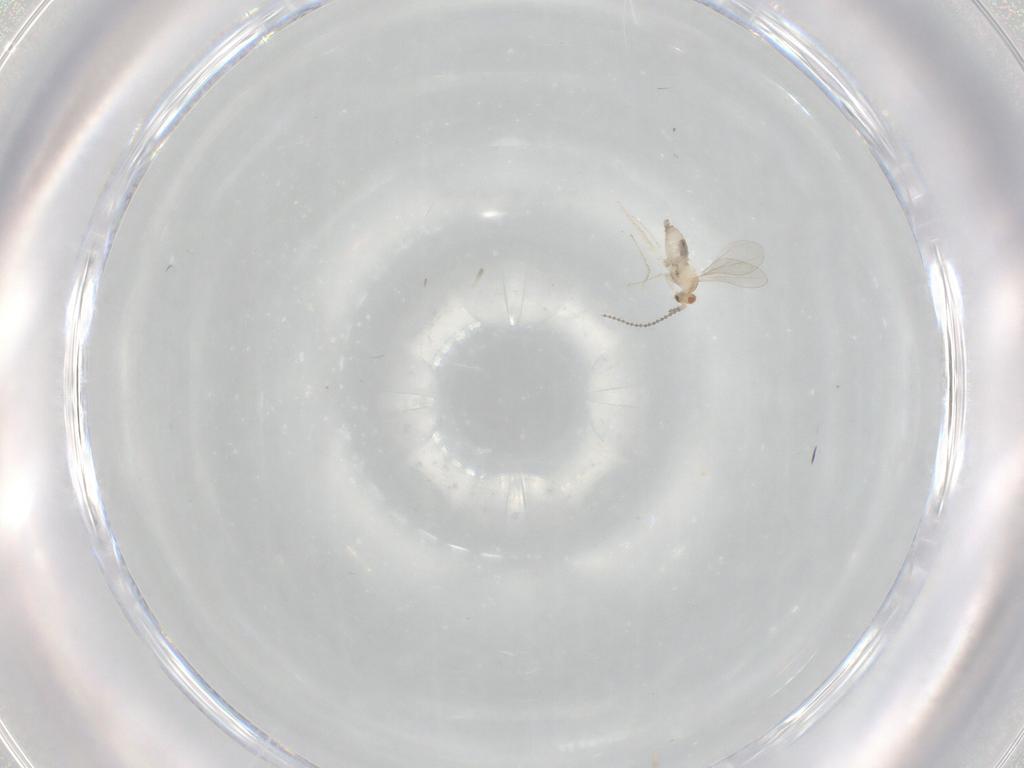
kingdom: Animalia
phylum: Arthropoda
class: Insecta
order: Diptera
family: Cecidomyiidae
